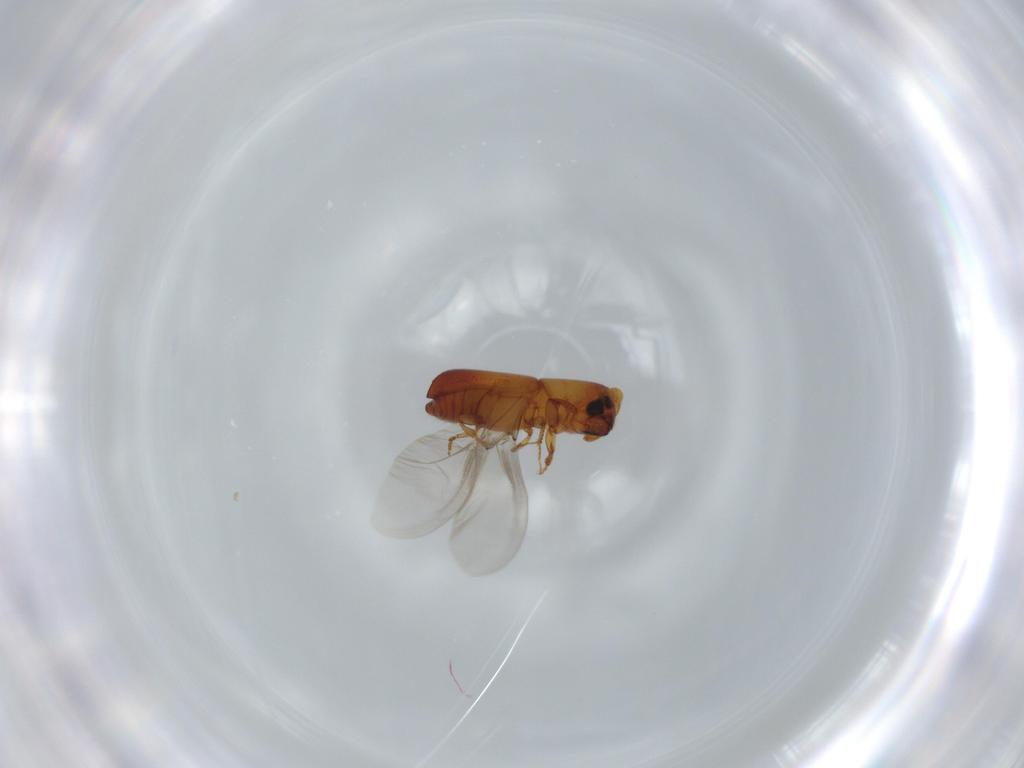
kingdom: Animalia
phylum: Arthropoda
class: Insecta
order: Coleoptera
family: Curculionidae
